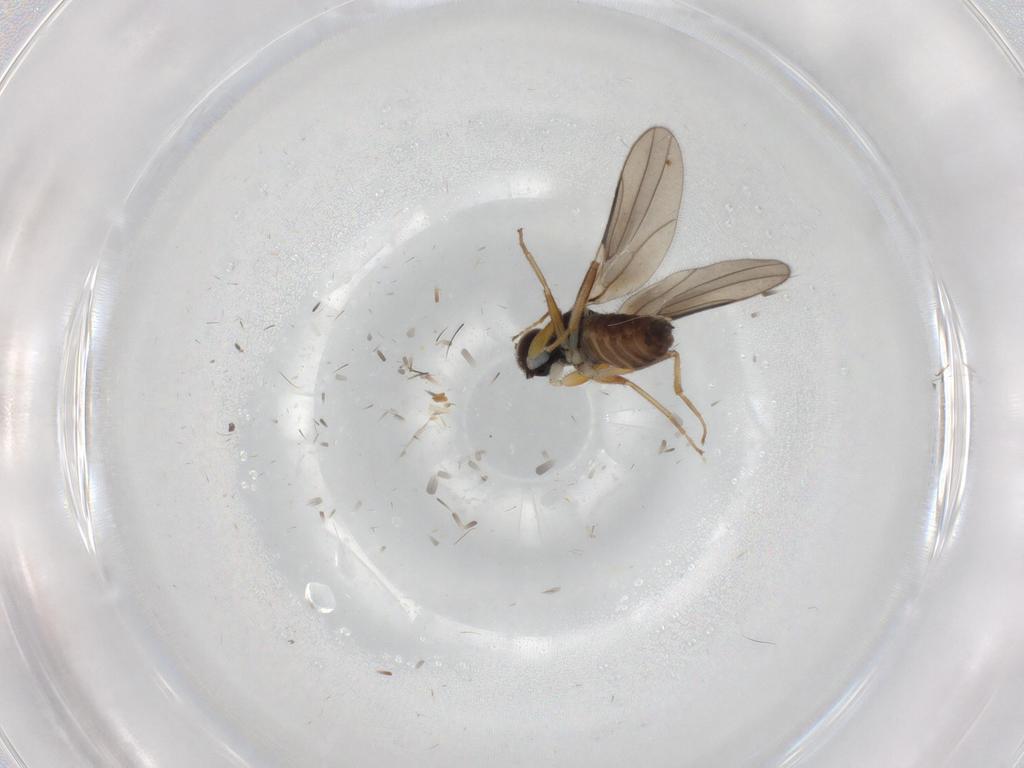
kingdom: Animalia
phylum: Arthropoda
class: Insecta
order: Diptera
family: Hybotidae
